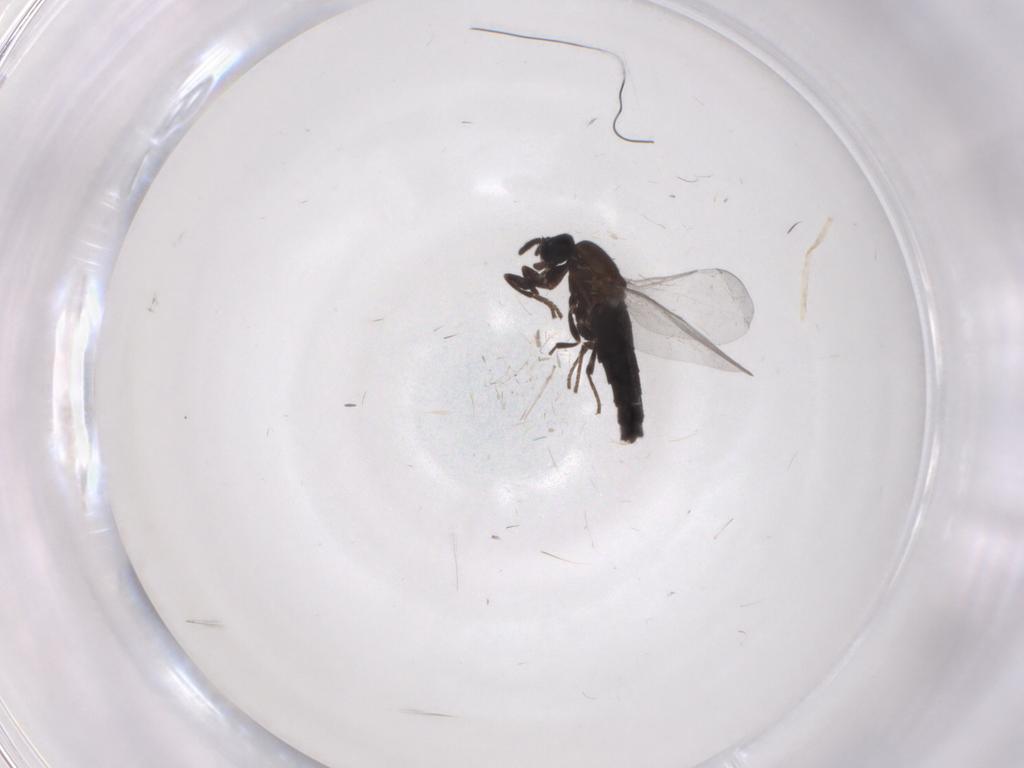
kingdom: Animalia
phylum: Arthropoda
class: Insecta
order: Diptera
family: Scatopsidae
